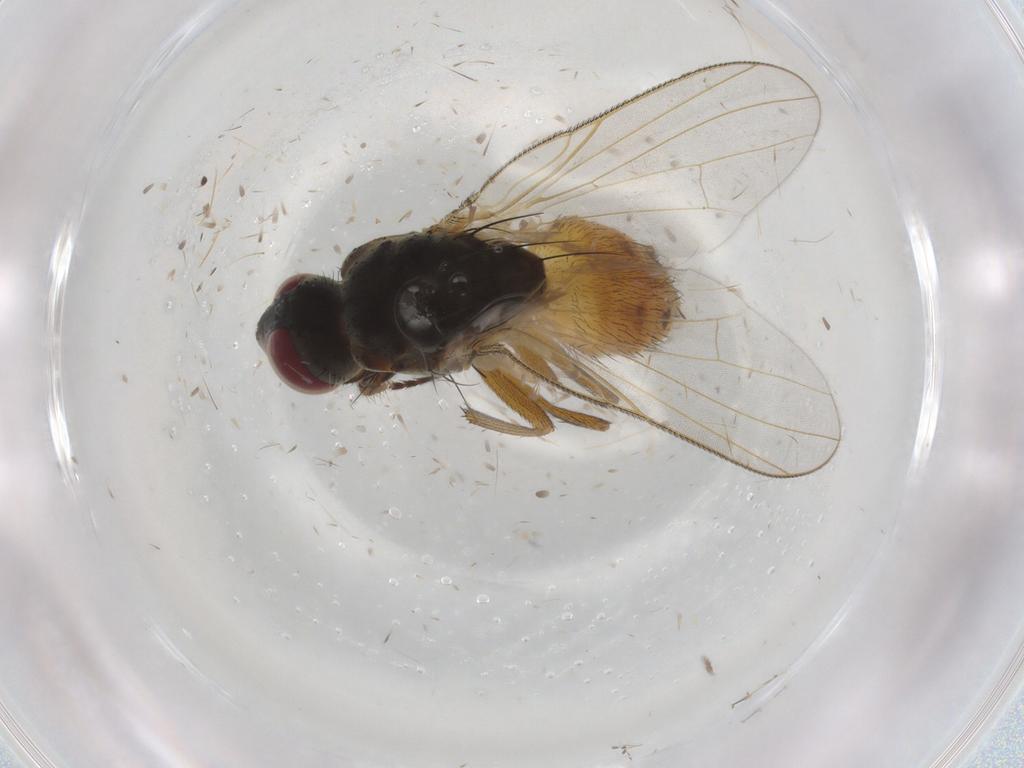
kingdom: Animalia
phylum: Arthropoda
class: Insecta
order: Diptera
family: Muscidae
